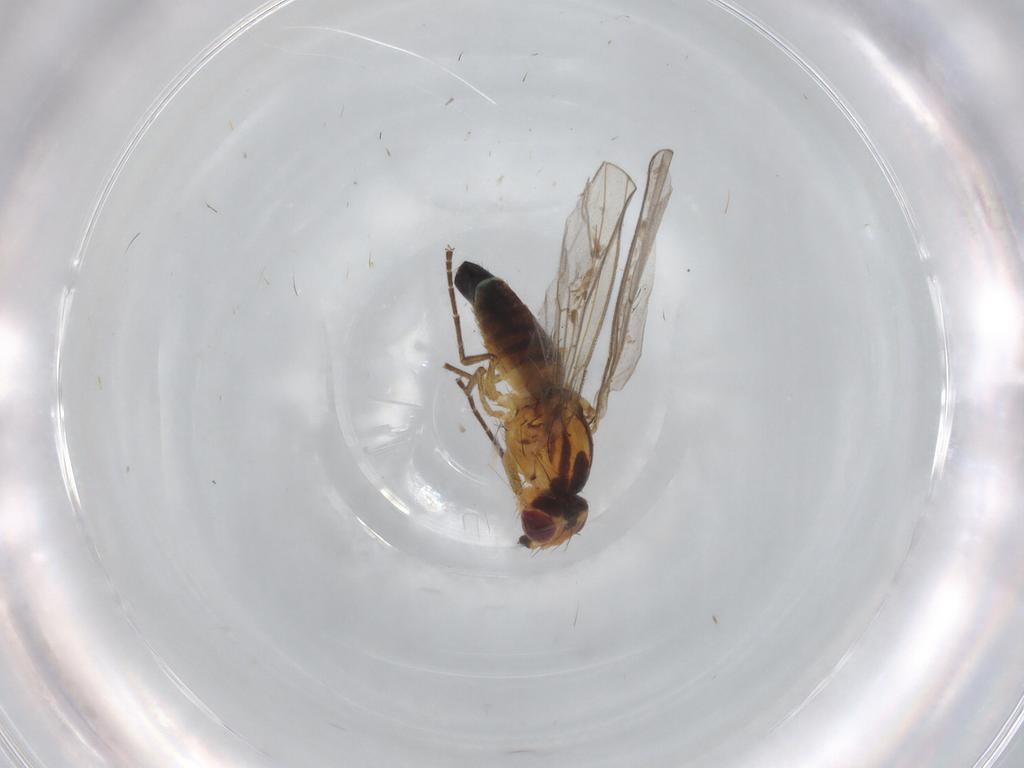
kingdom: Animalia
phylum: Arthropoda
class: Insecta
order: Diptera
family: Agromyzidae
